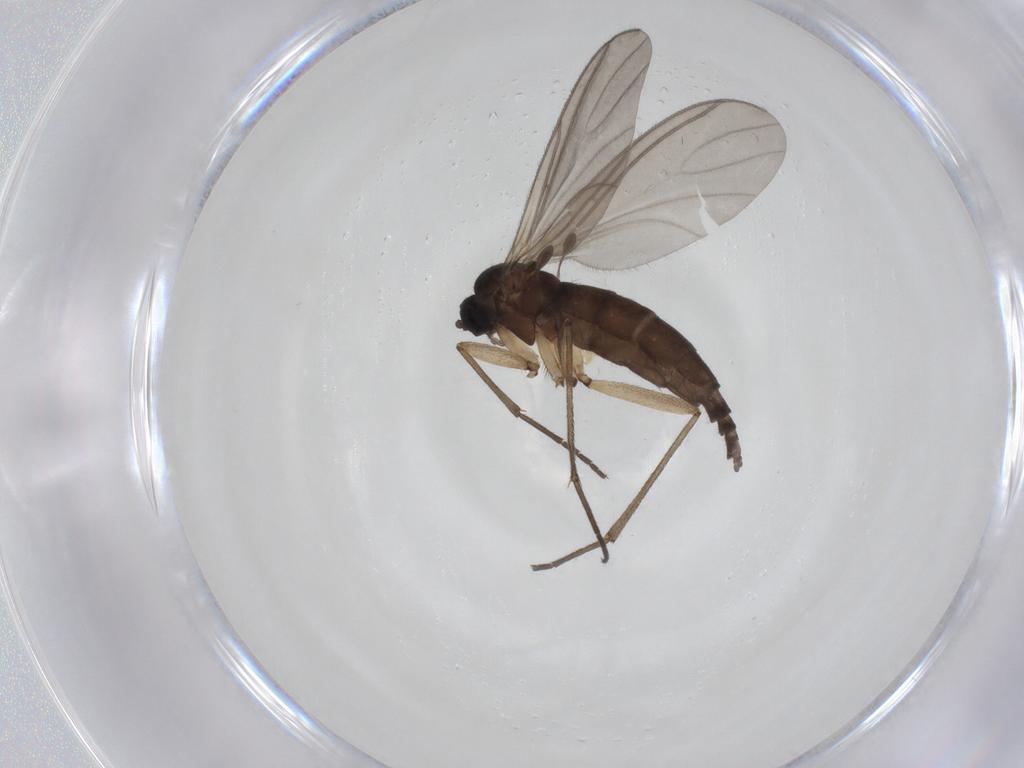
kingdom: Animalia
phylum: Arthropoda
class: Insecta
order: Diptera
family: Sciaridae
